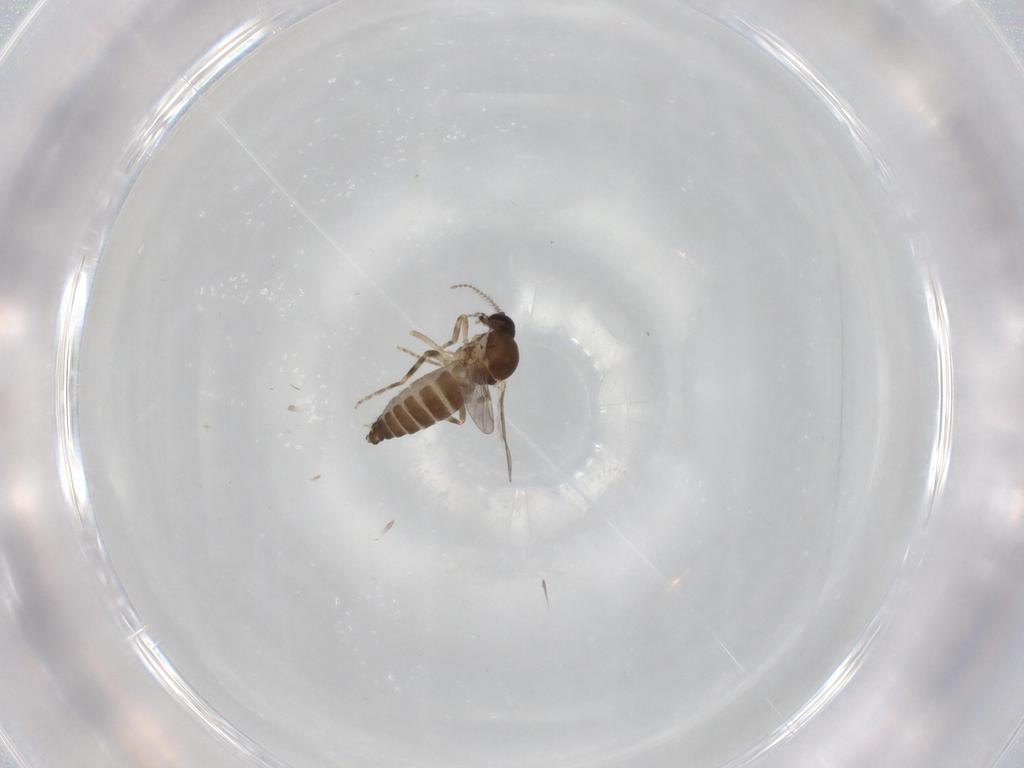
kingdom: Animalia
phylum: Arthropoda
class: Insecta
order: Diptera
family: Ceratopogonidae
